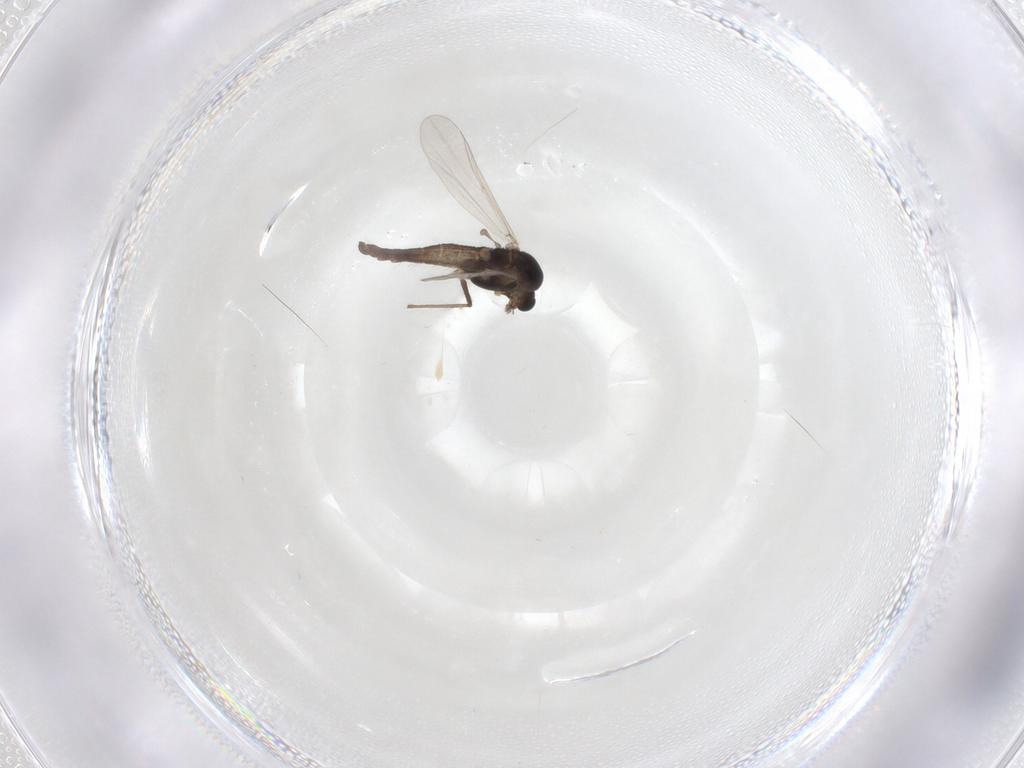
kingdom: Animalia
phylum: Arthropoda
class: Insecta
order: Diptera
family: Chironomidae
